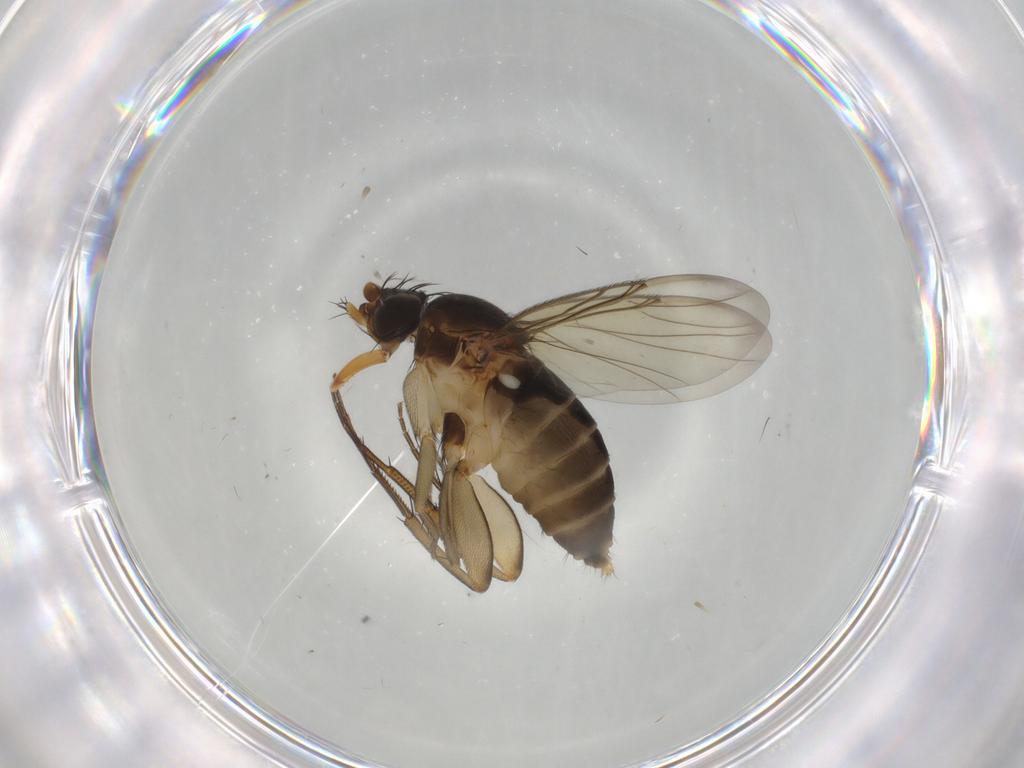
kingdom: Animalia
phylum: Arthropoda
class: Insecta
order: Diptera
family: Phoridae
